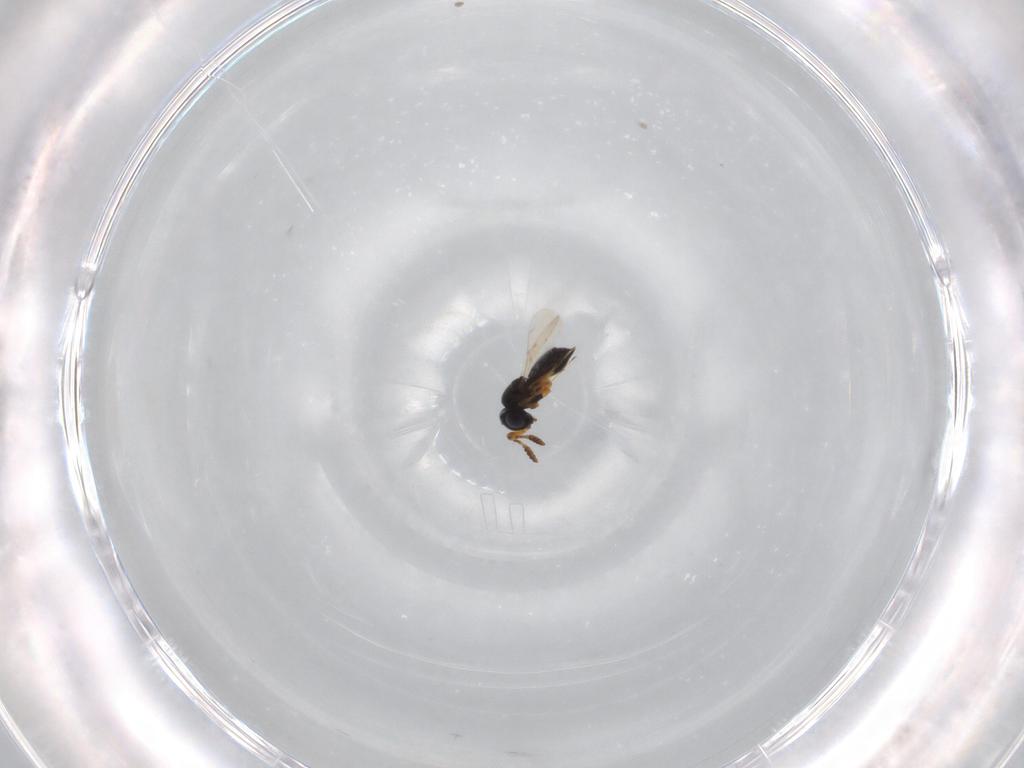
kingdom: Animalia
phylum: Arthropoda
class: Insecta
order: Hymenoptera
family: Scelionidae
